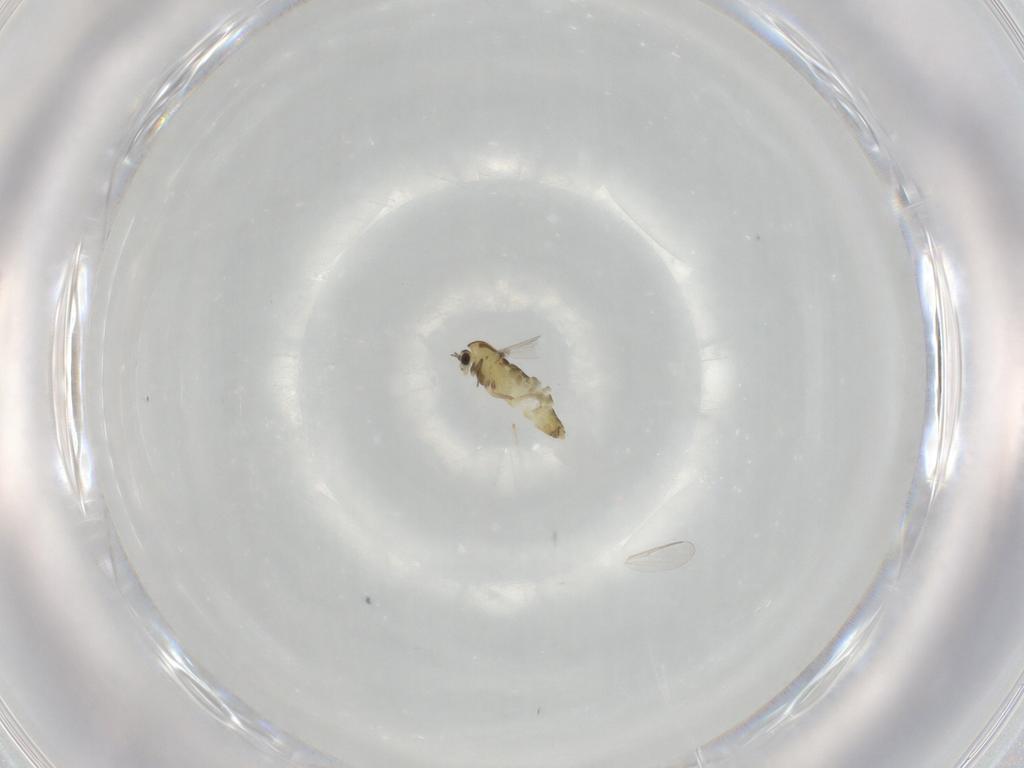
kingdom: Animalia
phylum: Arthropoda
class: Insecta
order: Diptera
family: Chironomidae
